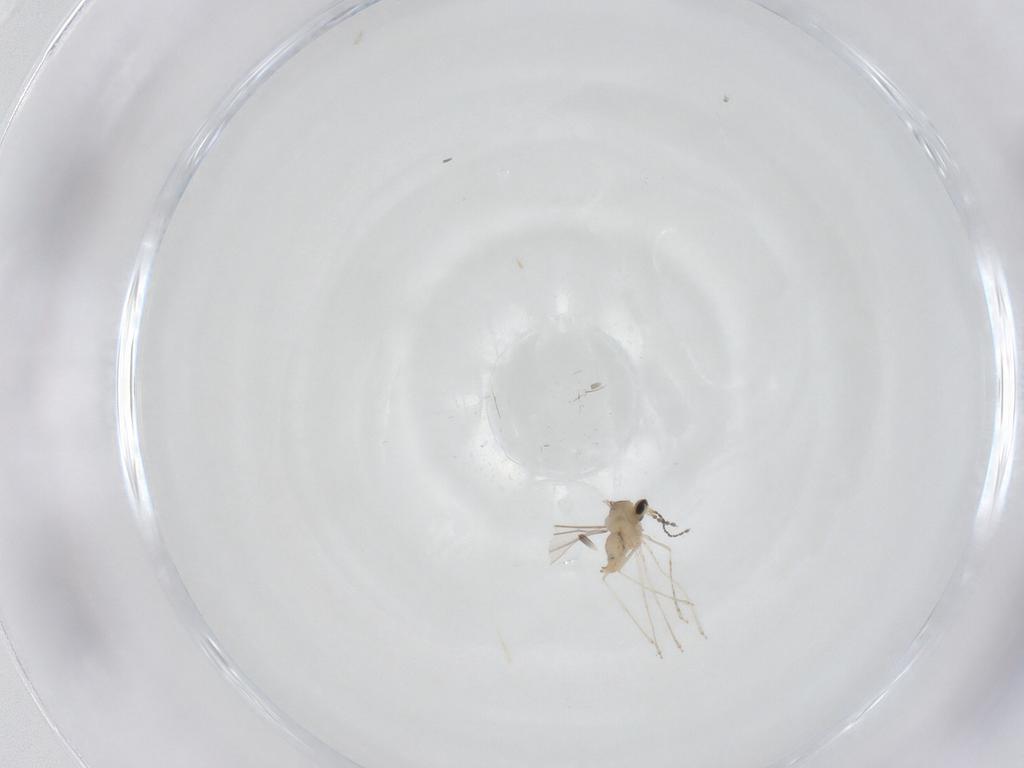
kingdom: Animalia
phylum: Arthropoda
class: Insecta
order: Diptera
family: Cecidomyiidae
